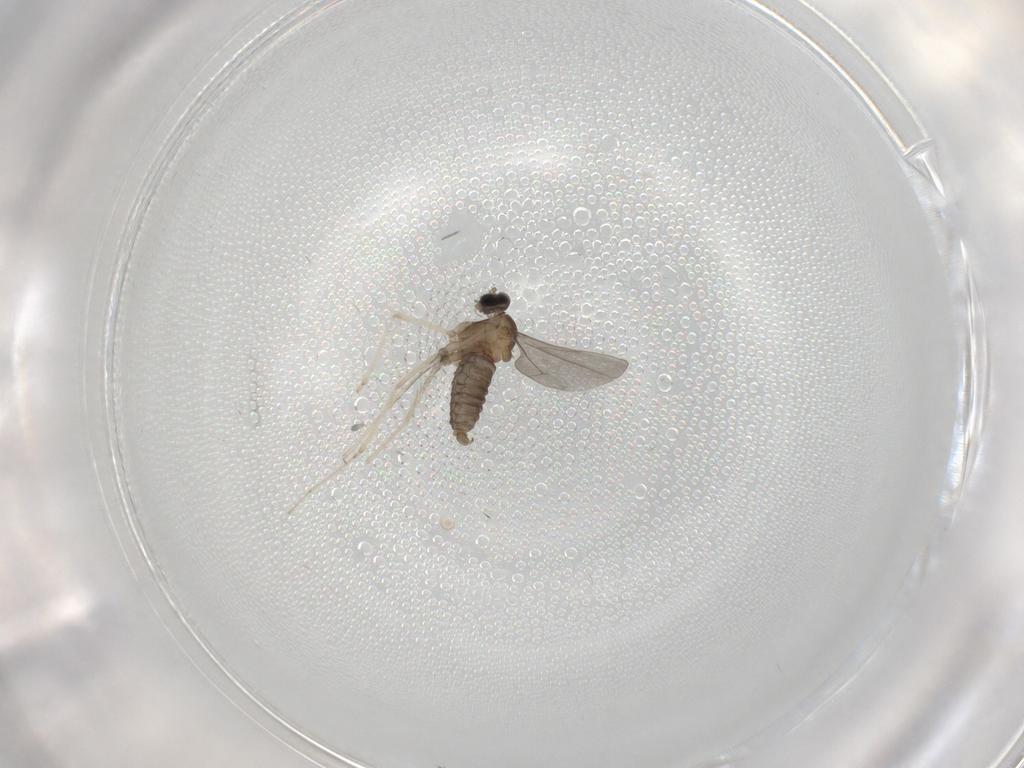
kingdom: Animalia
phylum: Arthropoda
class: Insecta
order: Diptera
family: Cecidomyiidae
